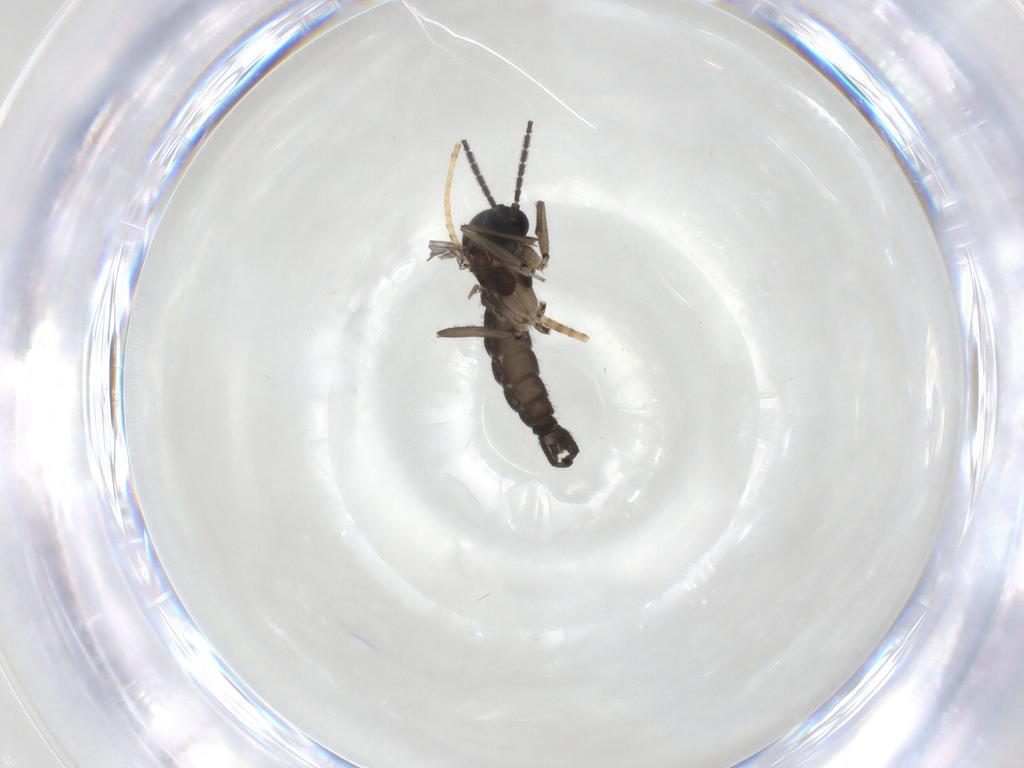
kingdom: Animalia
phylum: Arthropoda
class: Insecta
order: Diptera
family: Sciaridae
